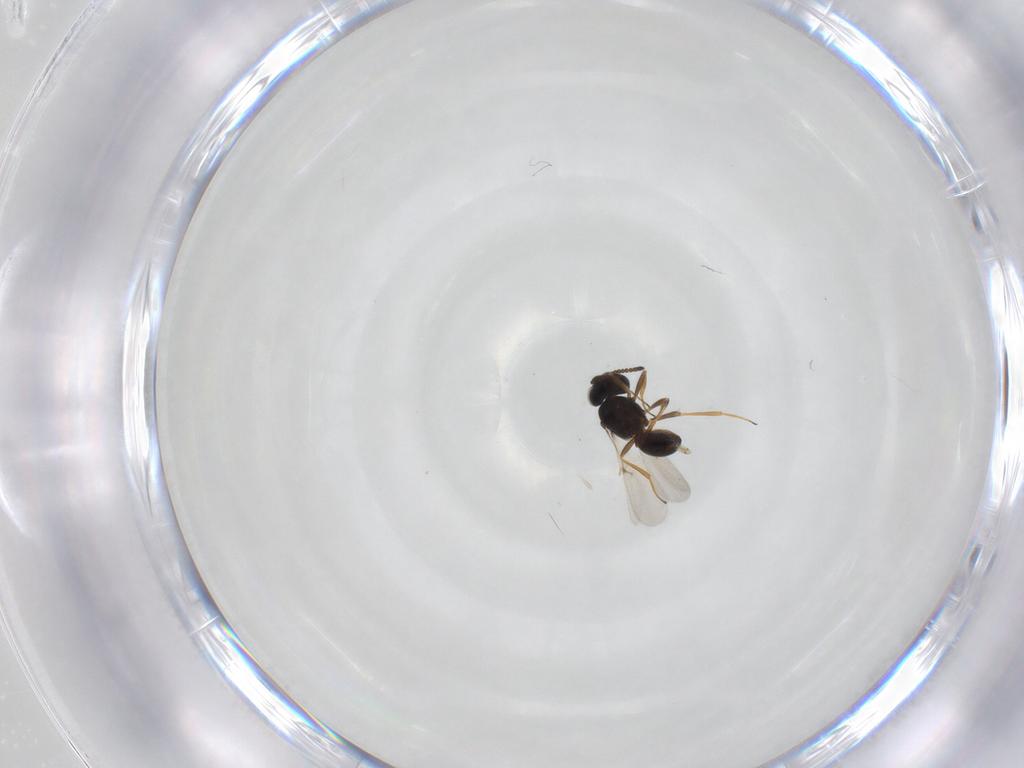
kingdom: Animalia
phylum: Arthropoda
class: Arachnida
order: Araneae
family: Pholcidae
